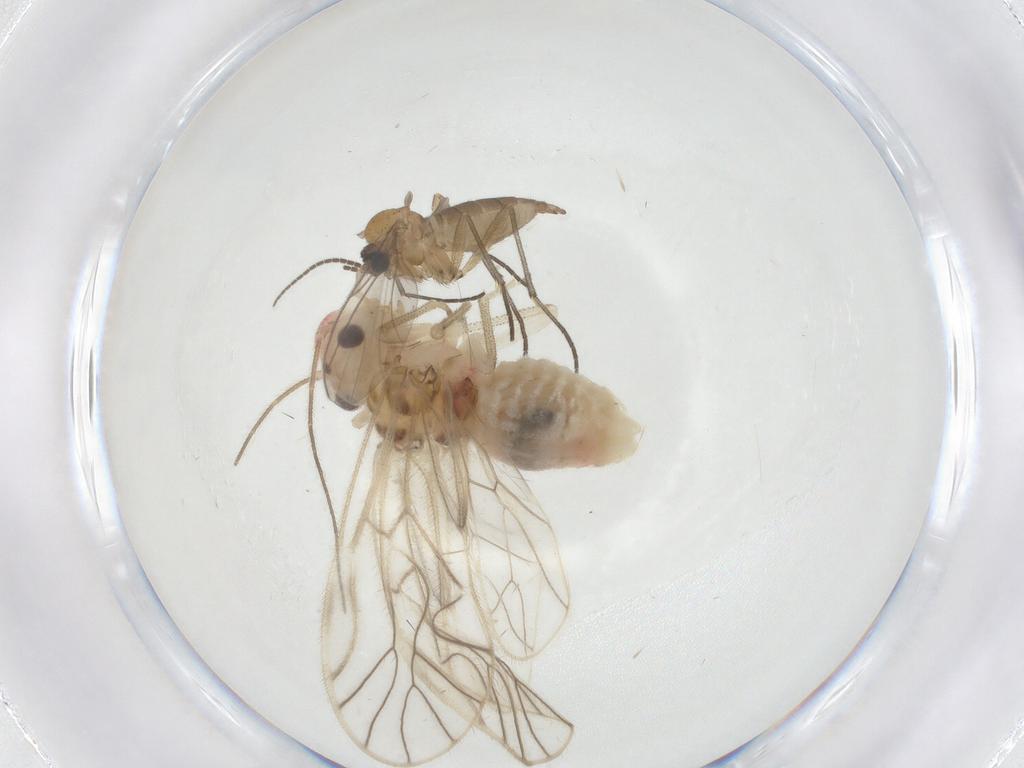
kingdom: Animalia
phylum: Arthropoda
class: Insecta
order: Diptera
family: Sciaridae
